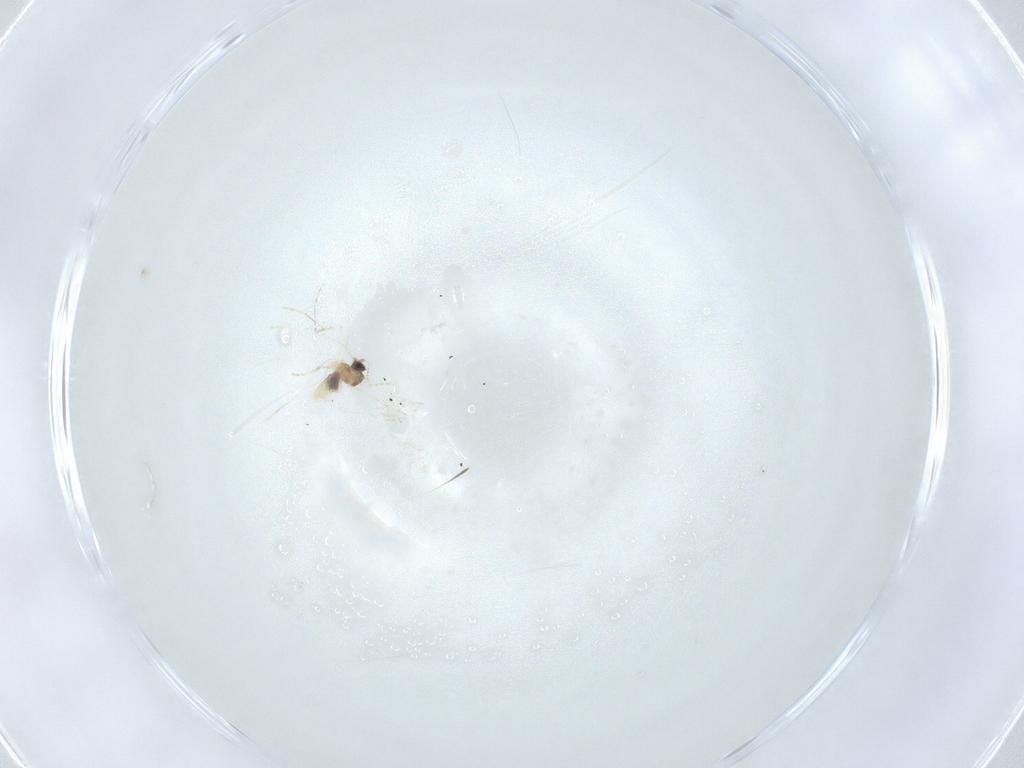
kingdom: Animalia
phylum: Arthropoda
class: Insecta
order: Diptera
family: Cecidomyiidae
